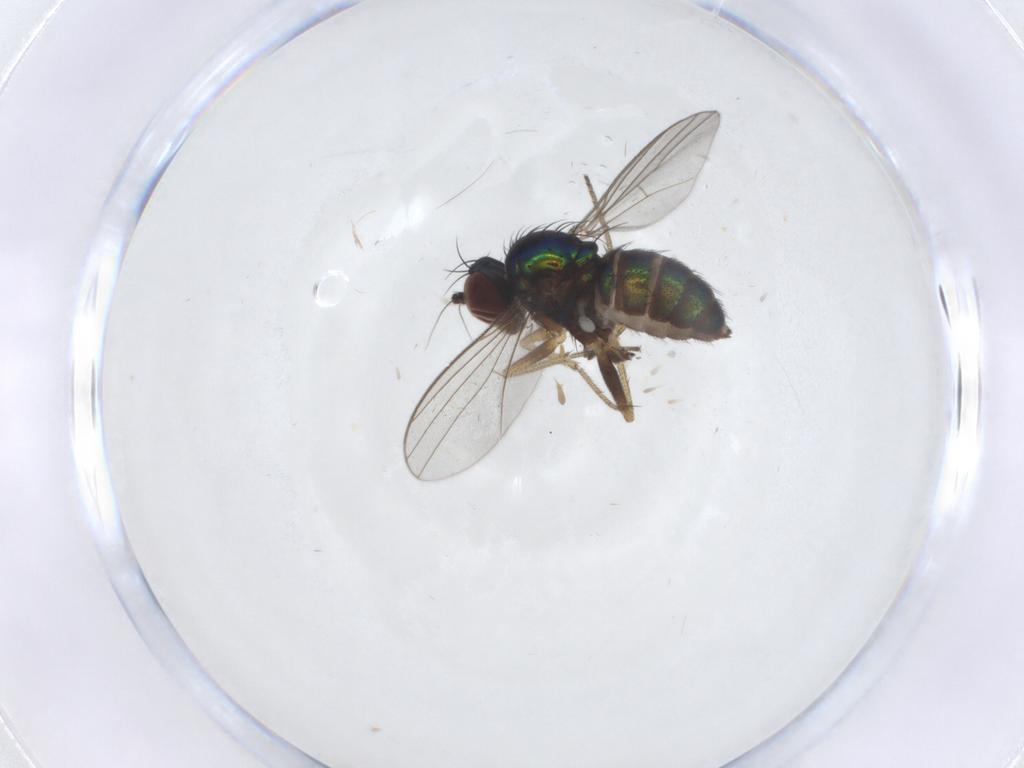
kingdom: Animalia
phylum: Arthropoda
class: Insecta
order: Diptera
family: Dolichopodidae
